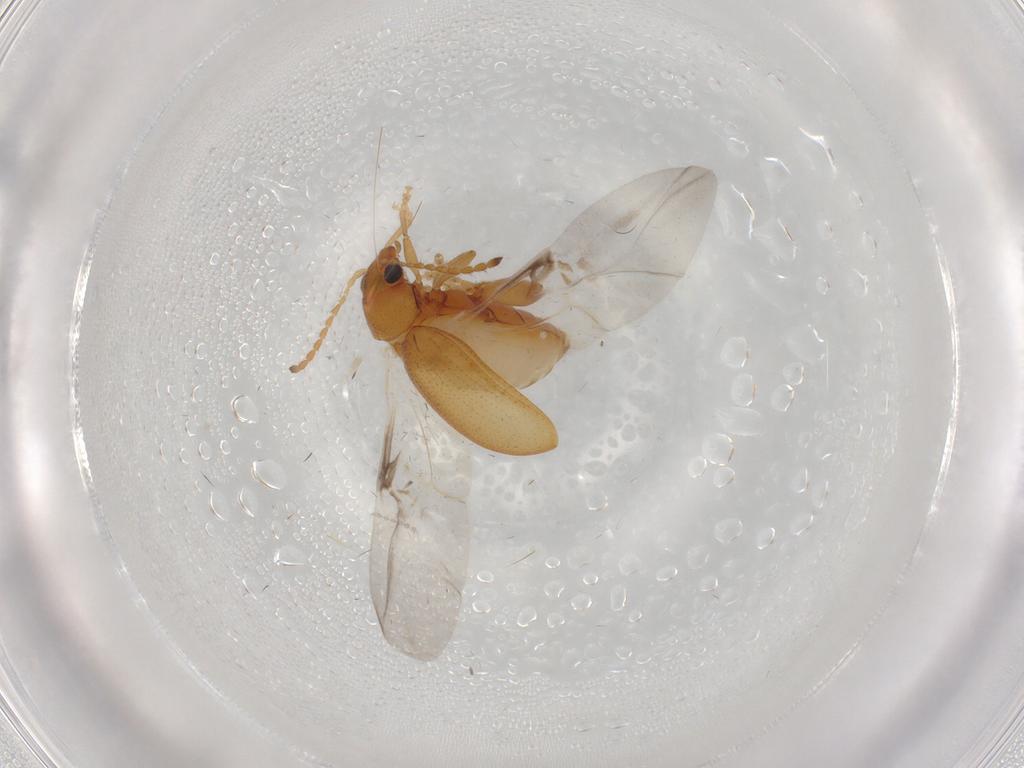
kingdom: Animalia
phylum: Arthropoda
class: Insecta
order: Coleoptera
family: Chrysomelidae
